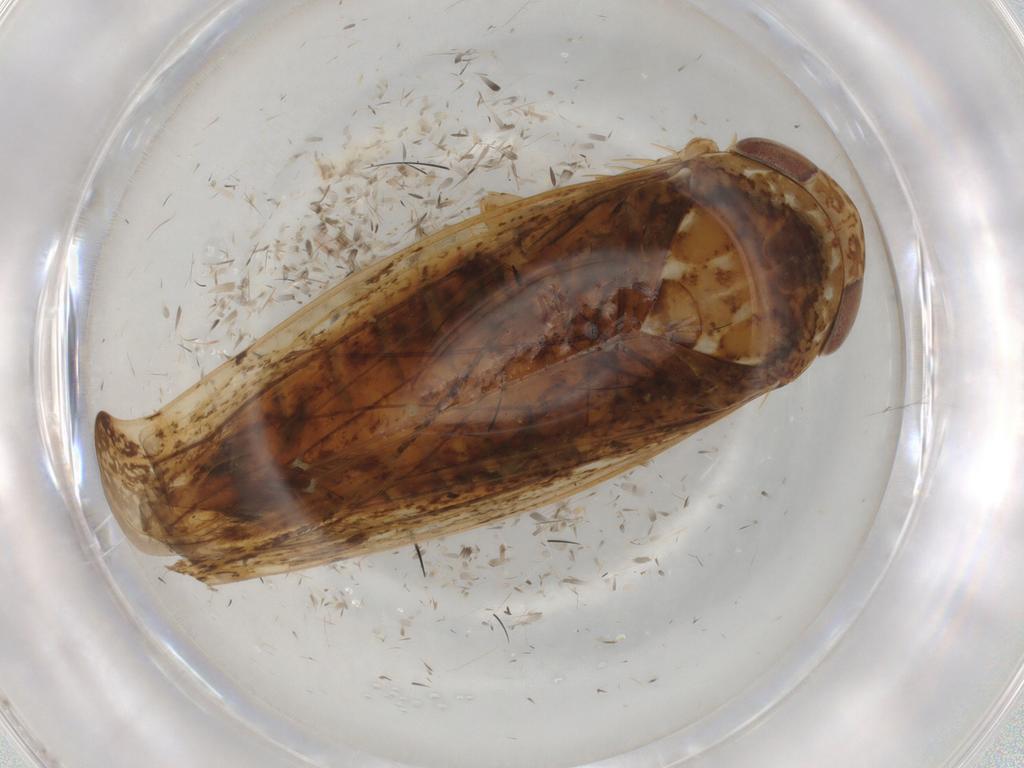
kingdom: Animalia
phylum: Arthropoda
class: Insecta
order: Hemiptera
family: Cicadellidae
